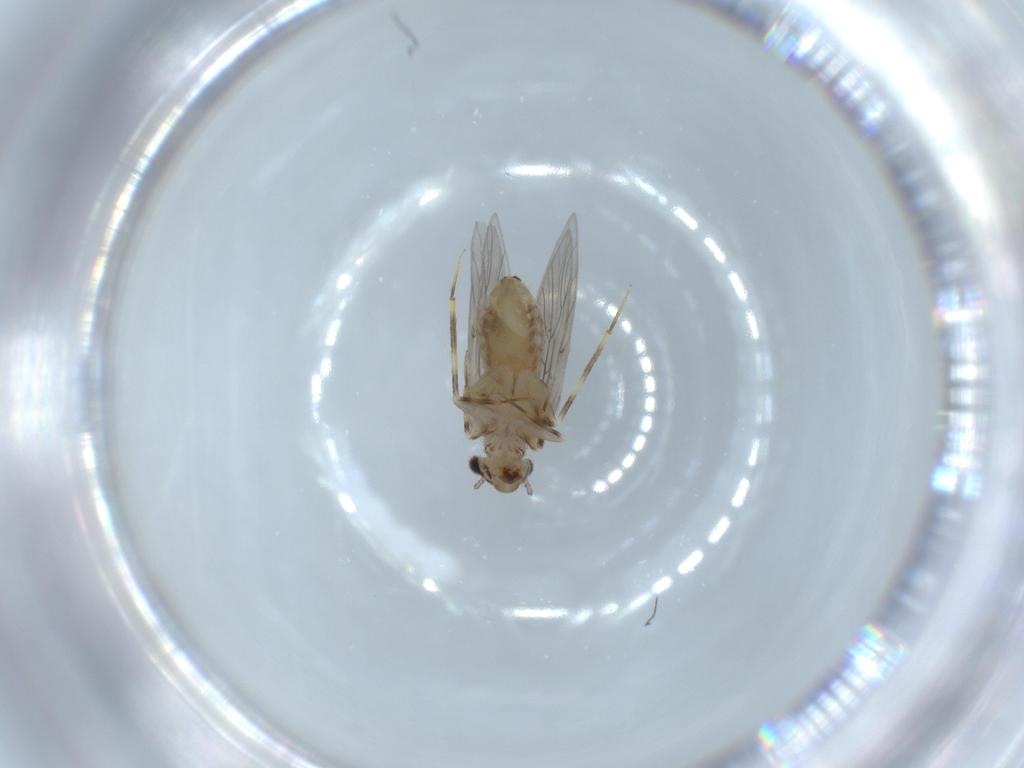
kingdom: Animalia
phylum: Arthropoda
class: Insecta
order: Psocodea
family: Lepidopsocidae
